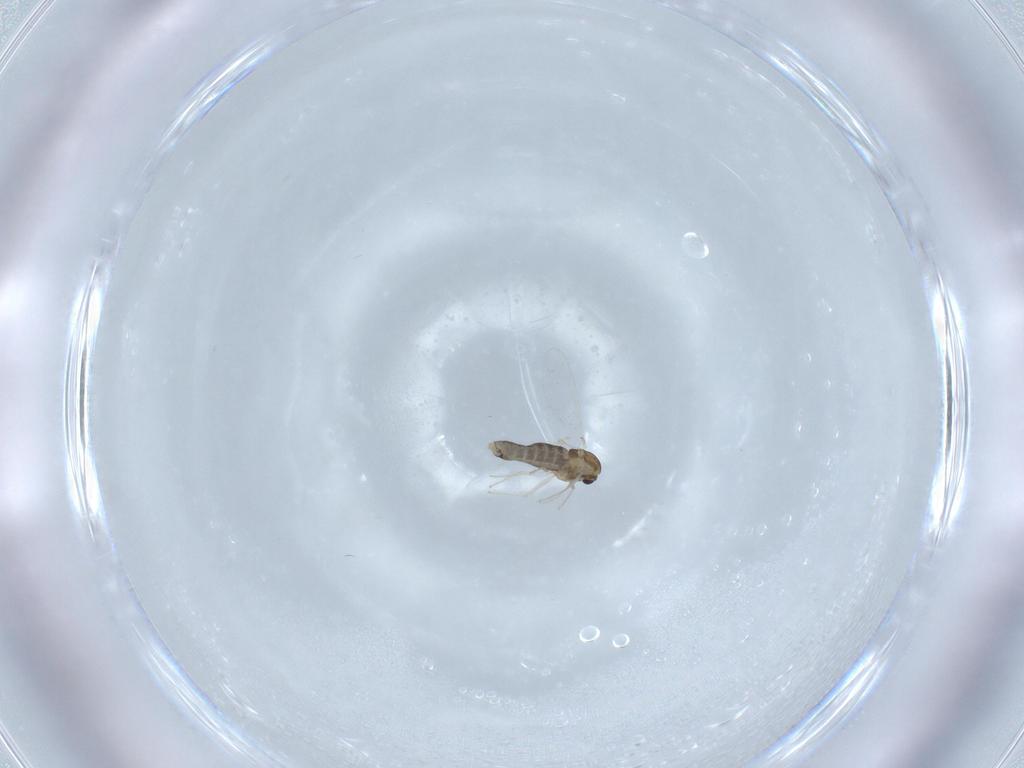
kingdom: Animalia
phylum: Arthropoda
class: Insecta
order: Diptera
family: Chironomidae
